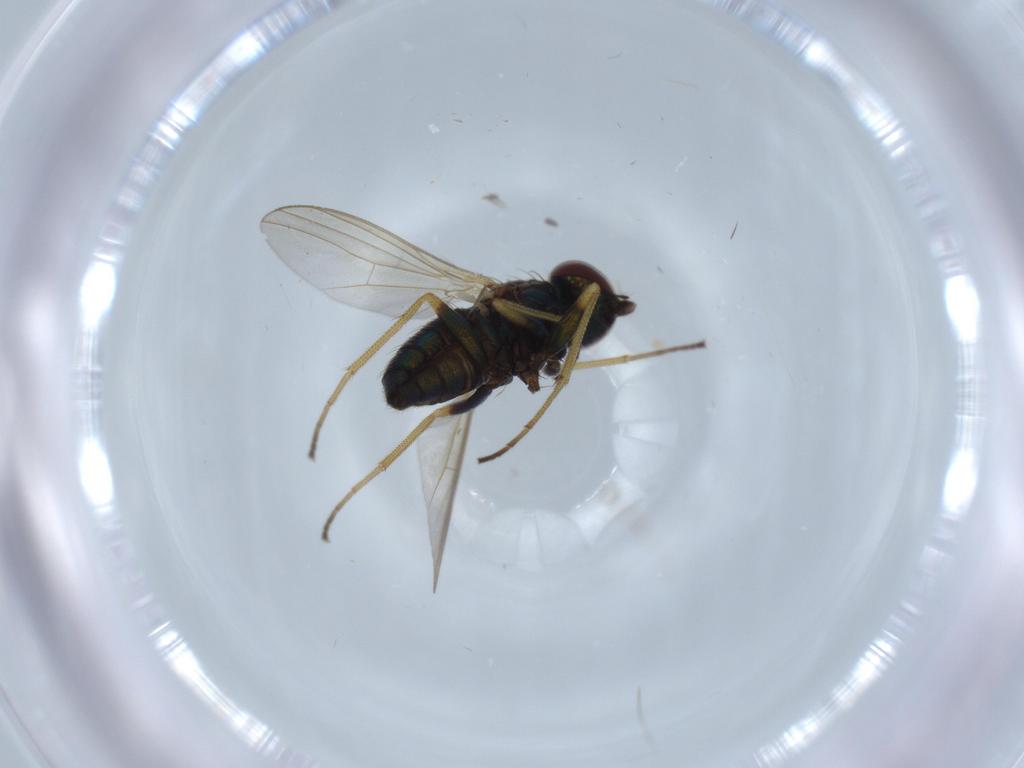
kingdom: Animalia
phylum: Arthropoda
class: Insecta
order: Diptera
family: Dolichopodidae
